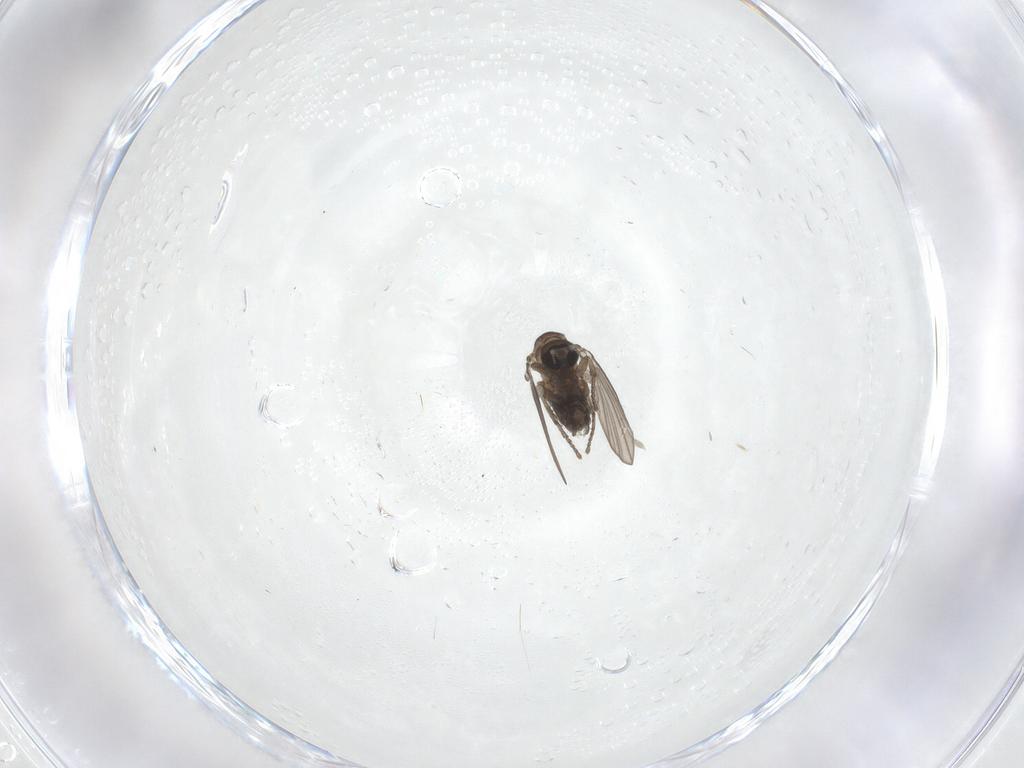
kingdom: Animalia
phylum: Arthropoda
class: Insecta
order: Diptera
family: Psychodidae
